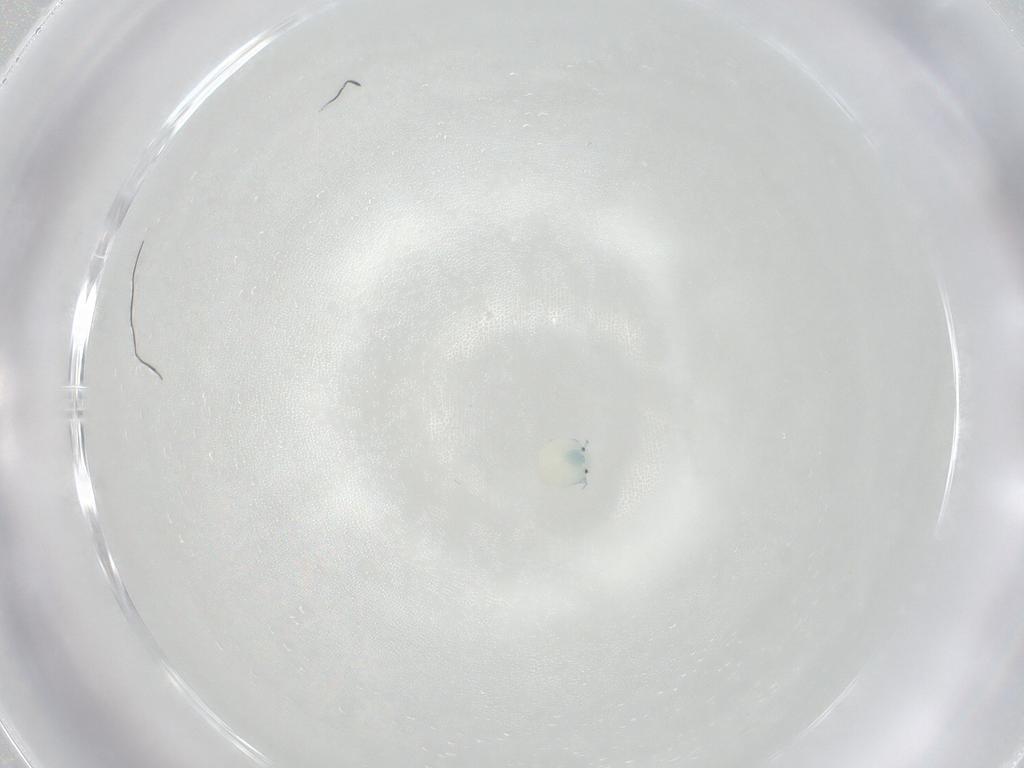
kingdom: Animalia
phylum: Arthropoda
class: Arachnida
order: Trombidiformes
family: Arrenuridae
